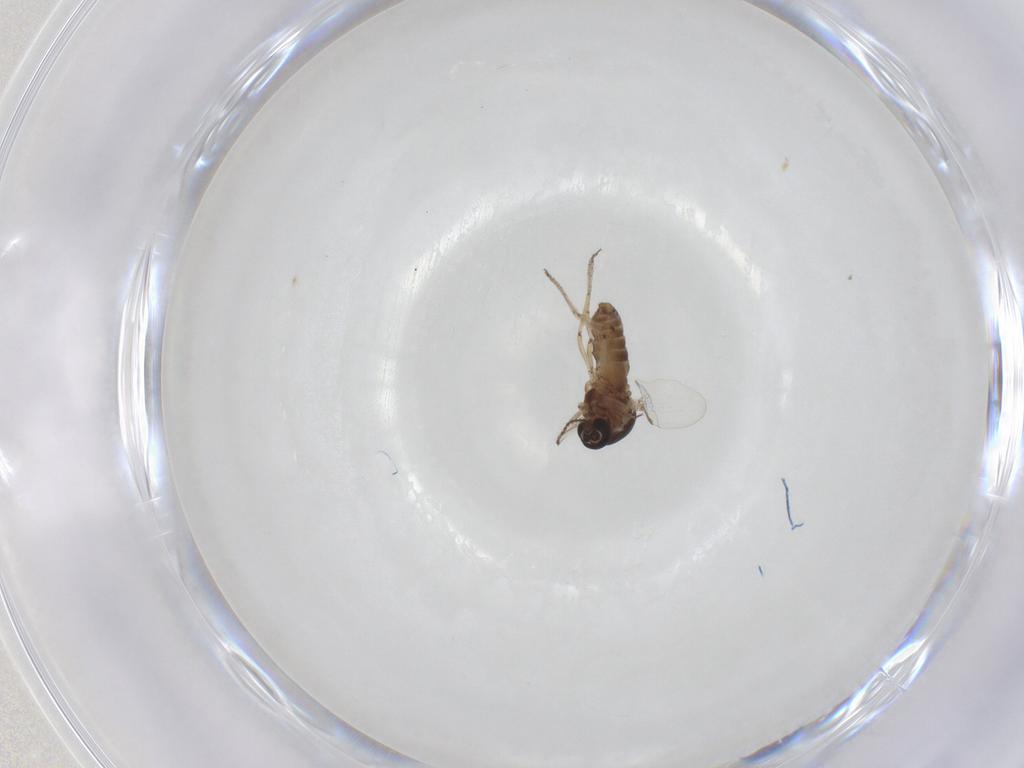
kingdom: Animalia
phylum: Arthropoda
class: Insecta
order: Diptera
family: Ceratopogonidae
